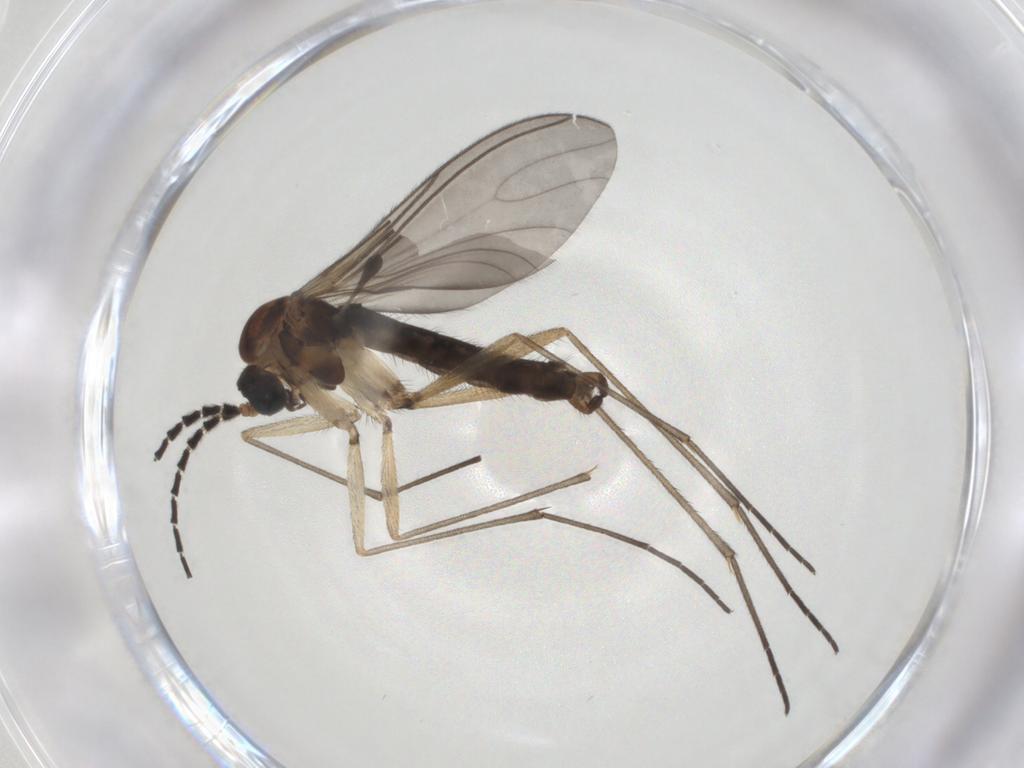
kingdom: Animalia
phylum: Arthropoda
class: Insecta
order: Diptera
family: Sciaridae
